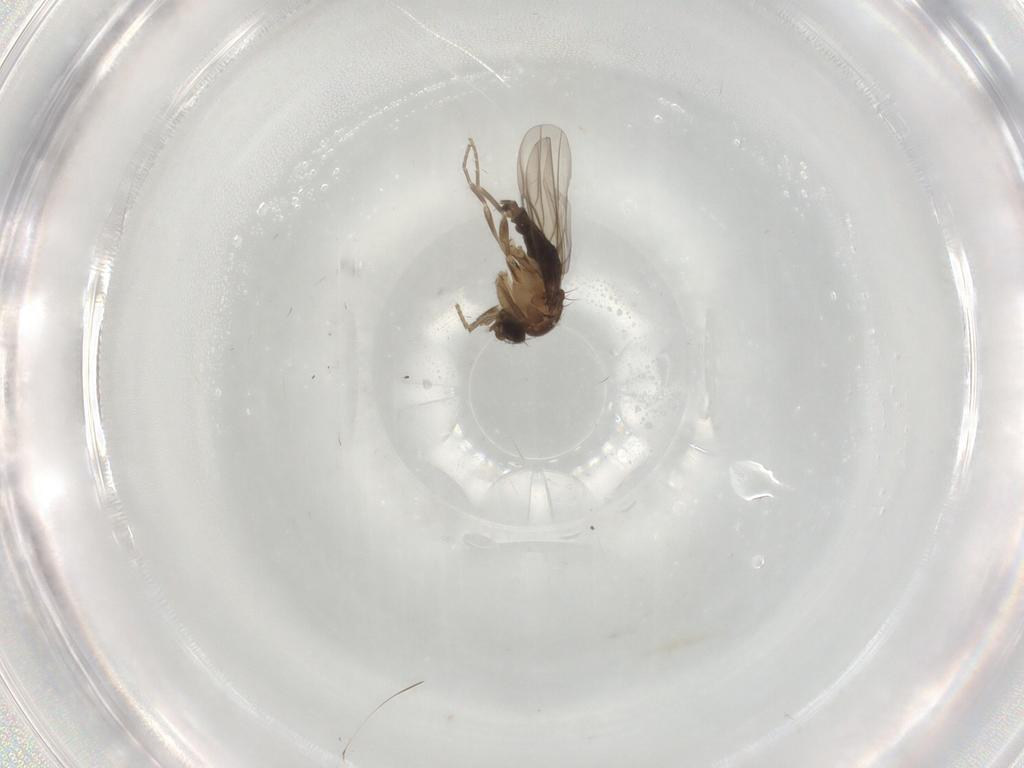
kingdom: Animalia
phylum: Arthropoda
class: Insecta
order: Diptera
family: Phoridae
